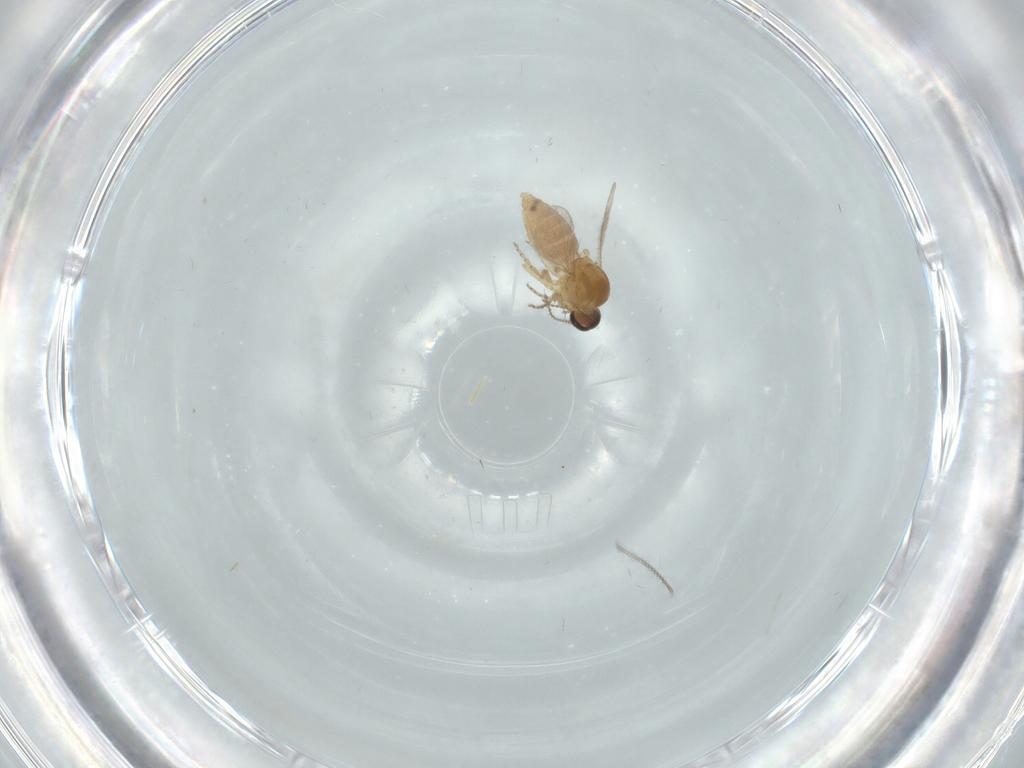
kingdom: Animalia
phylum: Arthropoda
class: Insecta
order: Diptera
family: Ceratopogonidae
